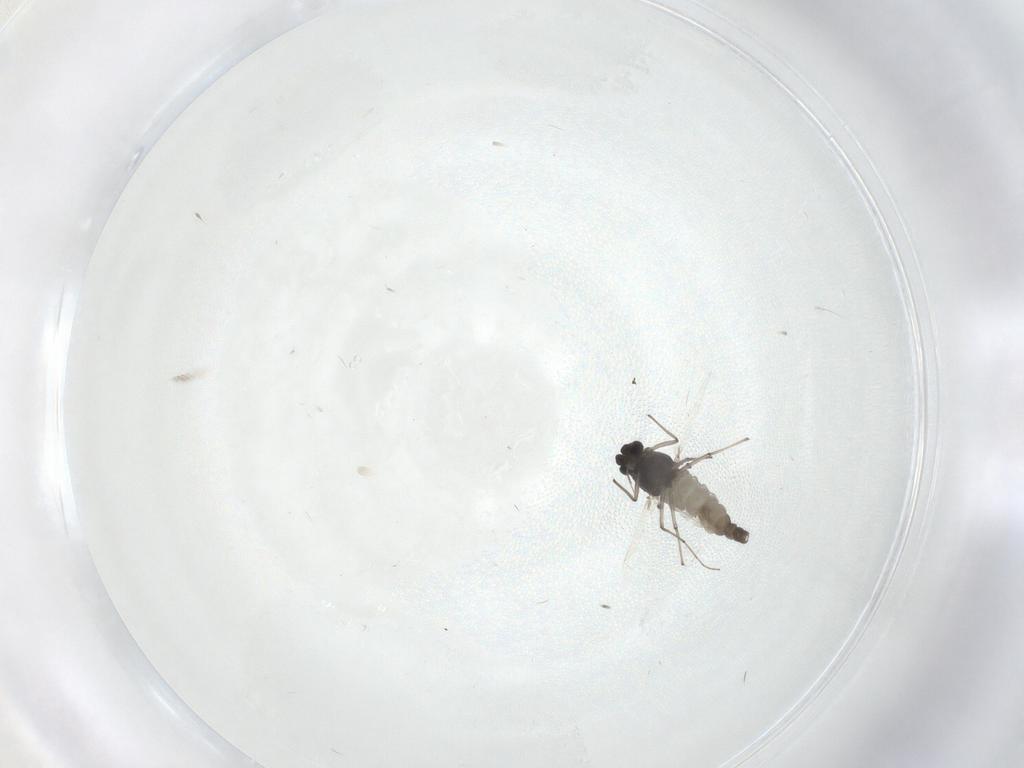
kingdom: Animalia
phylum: Arthropoda
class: Insecta
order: Diptera
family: Chironomidae
